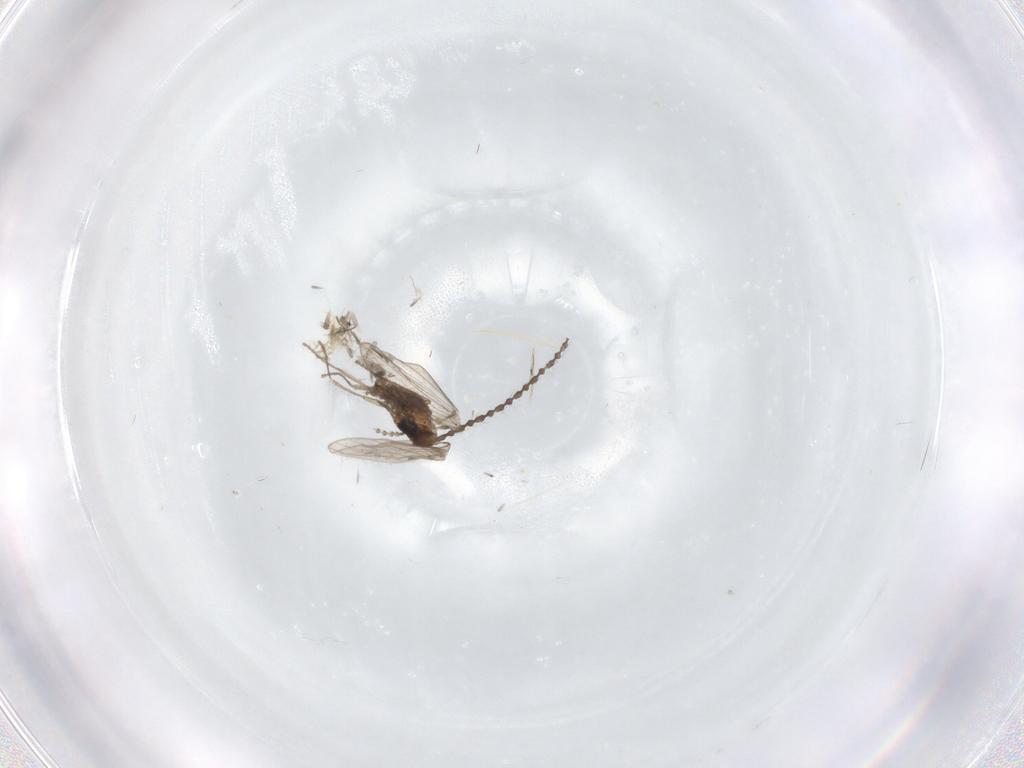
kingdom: Animalia
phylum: Arthropoda
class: Insecta
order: Diptera
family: Psychodidae
